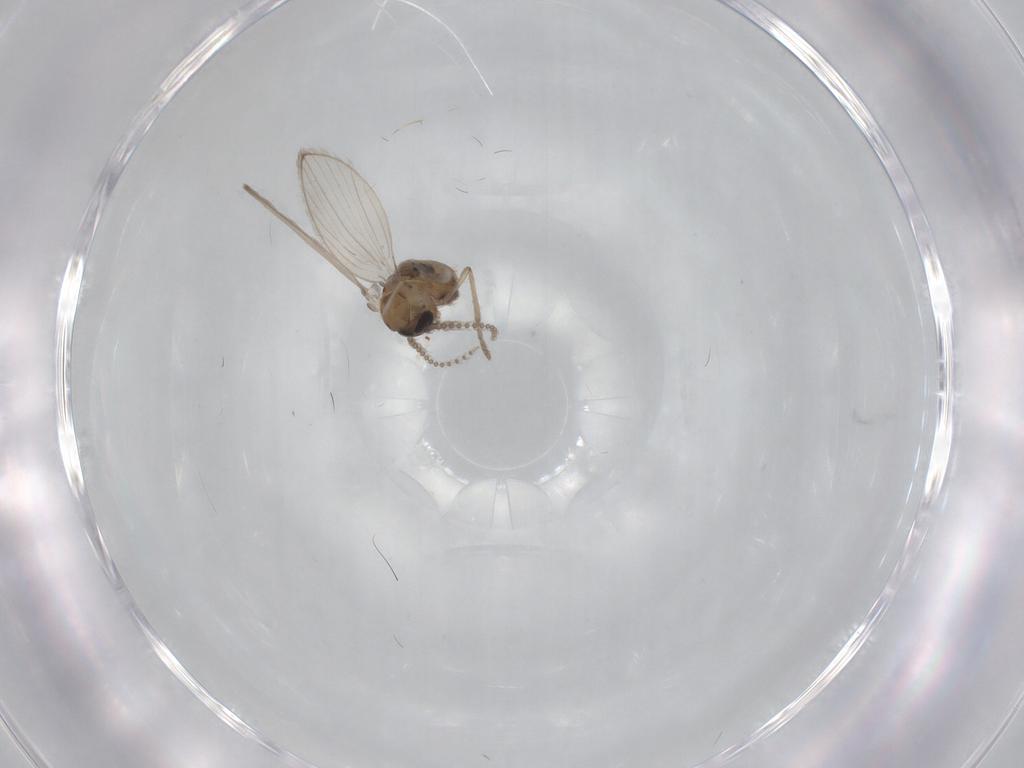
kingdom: Animalia
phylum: Arthropoda
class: Insecta
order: Diptera
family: Psychodidae
